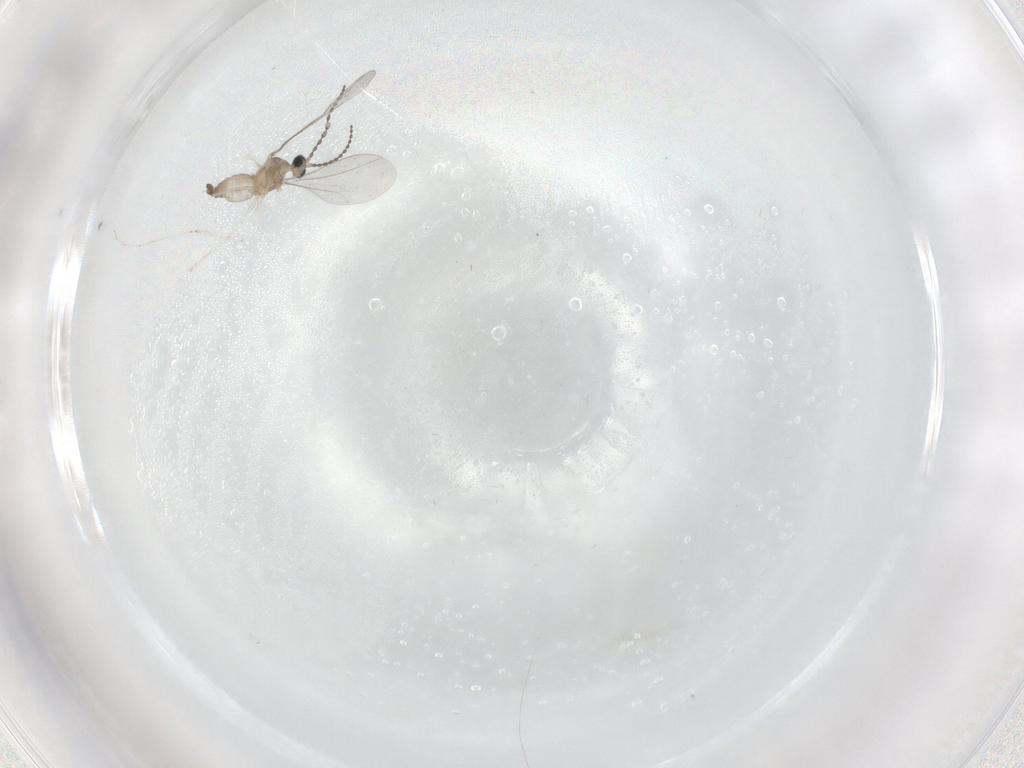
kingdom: Animalia
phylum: Arthropoda
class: Insecta
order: Diptera
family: Cecidomyiidae
